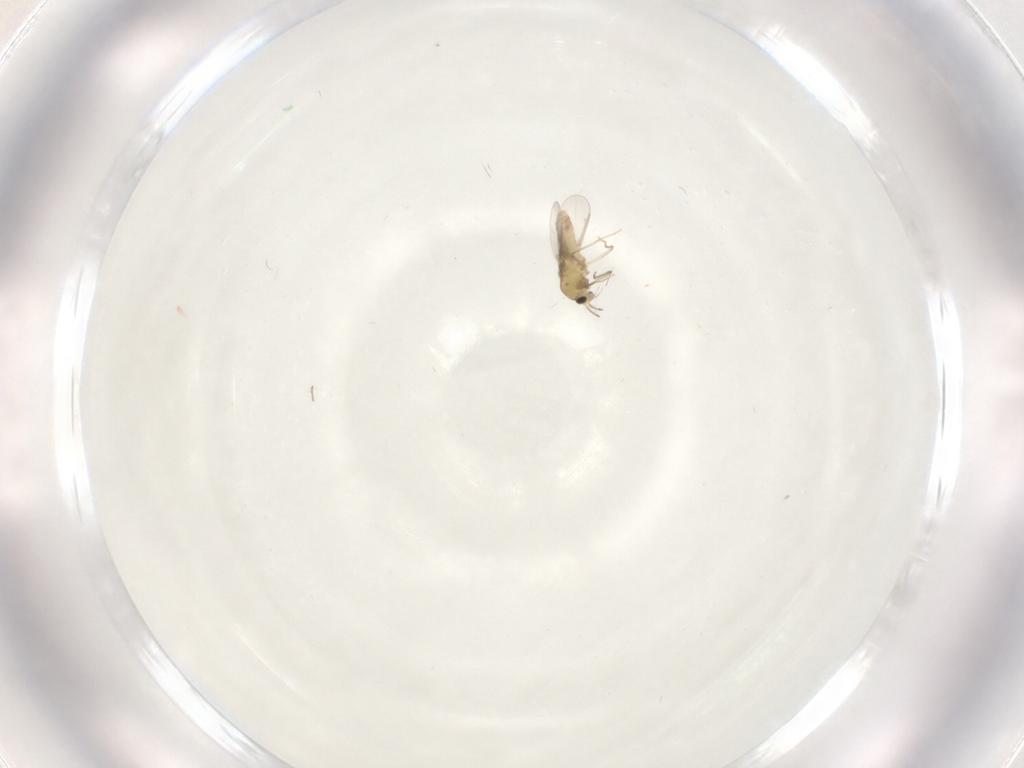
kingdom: Animalia
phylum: Arthropoda
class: Insecta
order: Diptera
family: Chironomidae
